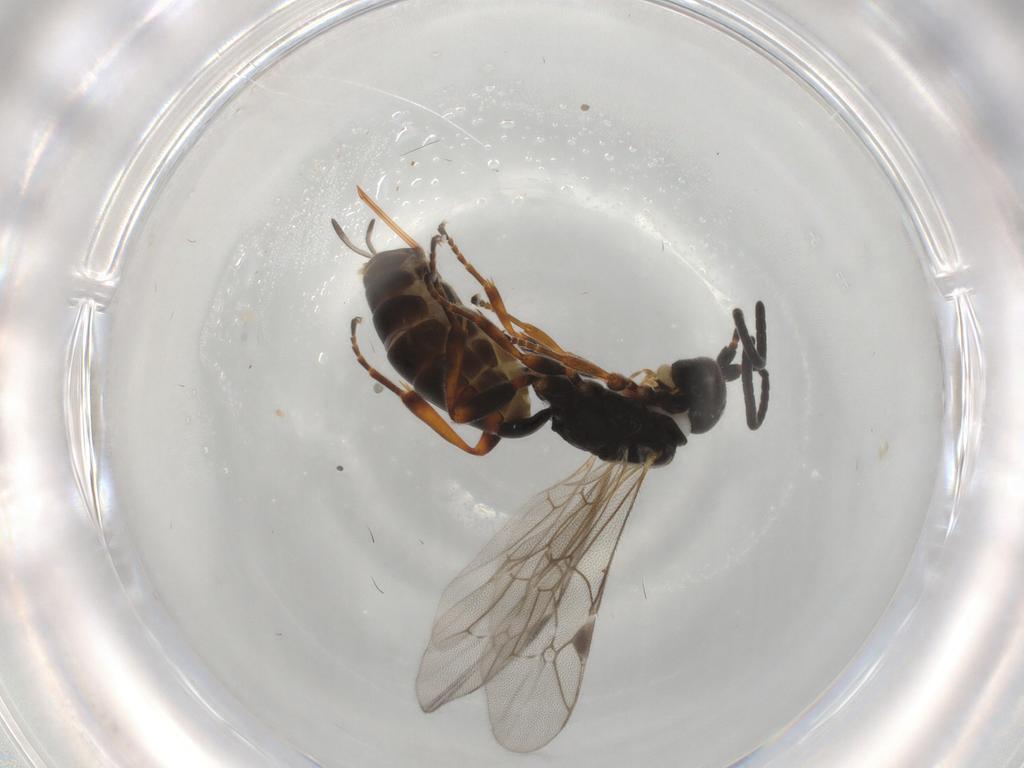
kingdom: Animalia
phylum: Arthropoda
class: Insecta
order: Hymenoptera
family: Ichneumonidae
